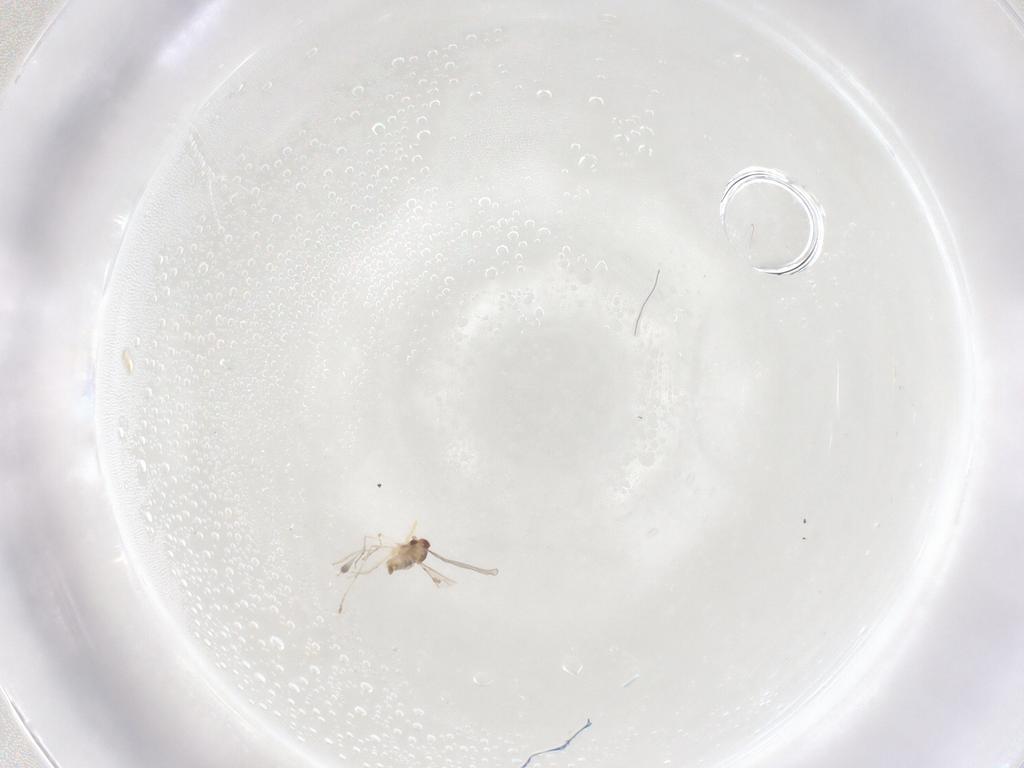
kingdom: Animalia
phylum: Arthropoda
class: Insecta
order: Diptera
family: Cecidomyiidae
